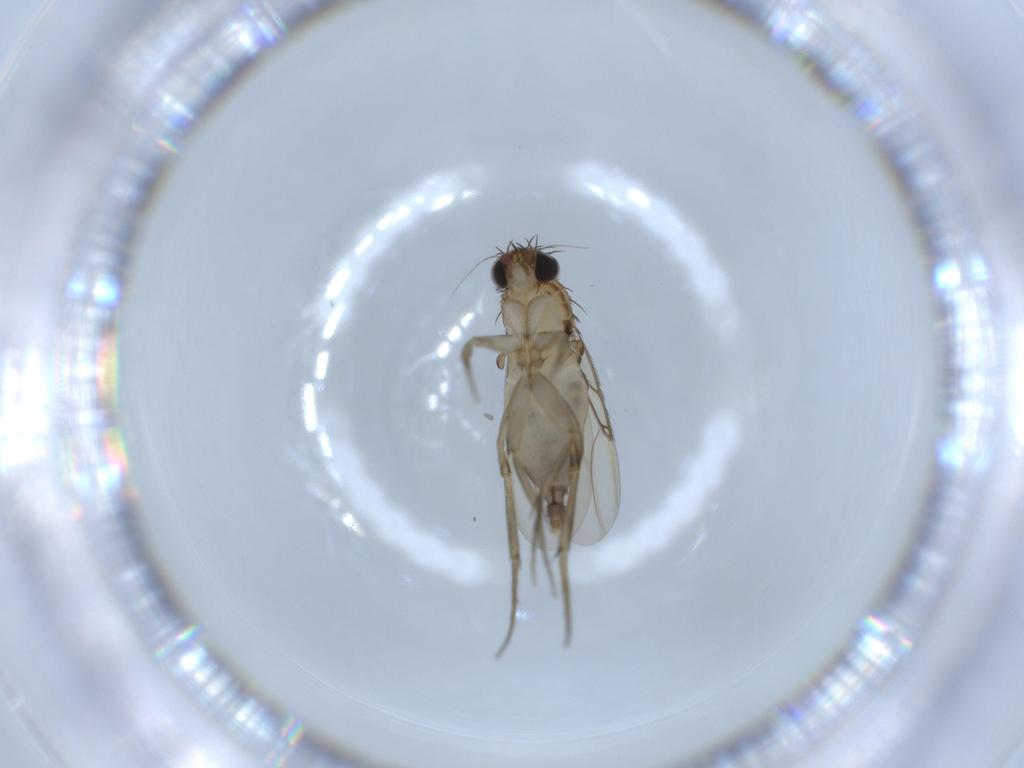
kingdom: Animalia
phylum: Arthropoda
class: Insecta
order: Diptera
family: Phoridae
